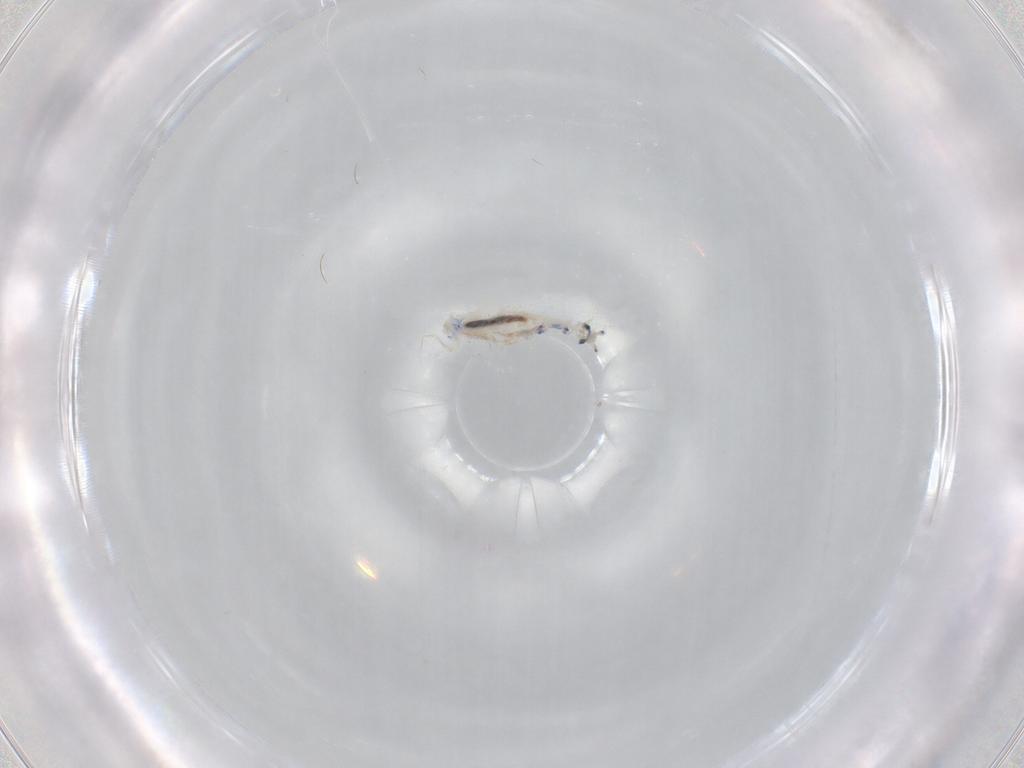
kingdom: Animalia
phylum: Arthropoda
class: Collembola
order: Entomobryomorpha
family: Entomobryidae
